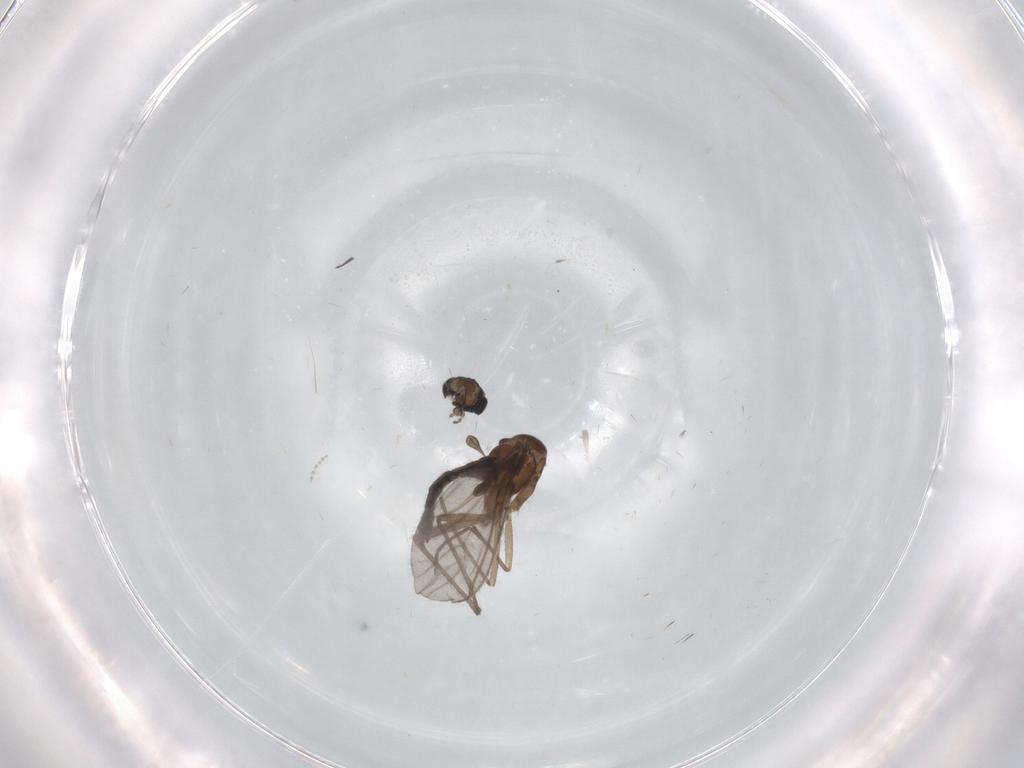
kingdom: Animalia
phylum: Arthropoda
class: Insecta
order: Diptera
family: Sciaridae
